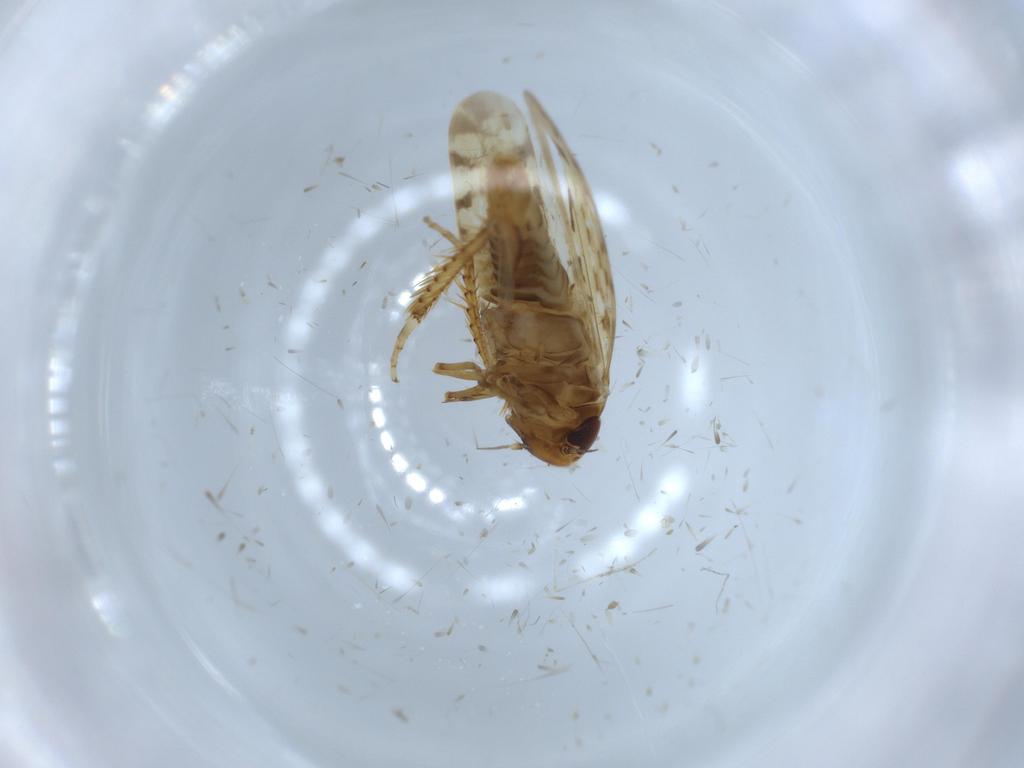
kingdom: Animalia
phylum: Arthropoda
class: Insecta
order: Hemiptera
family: Cicadellidae
